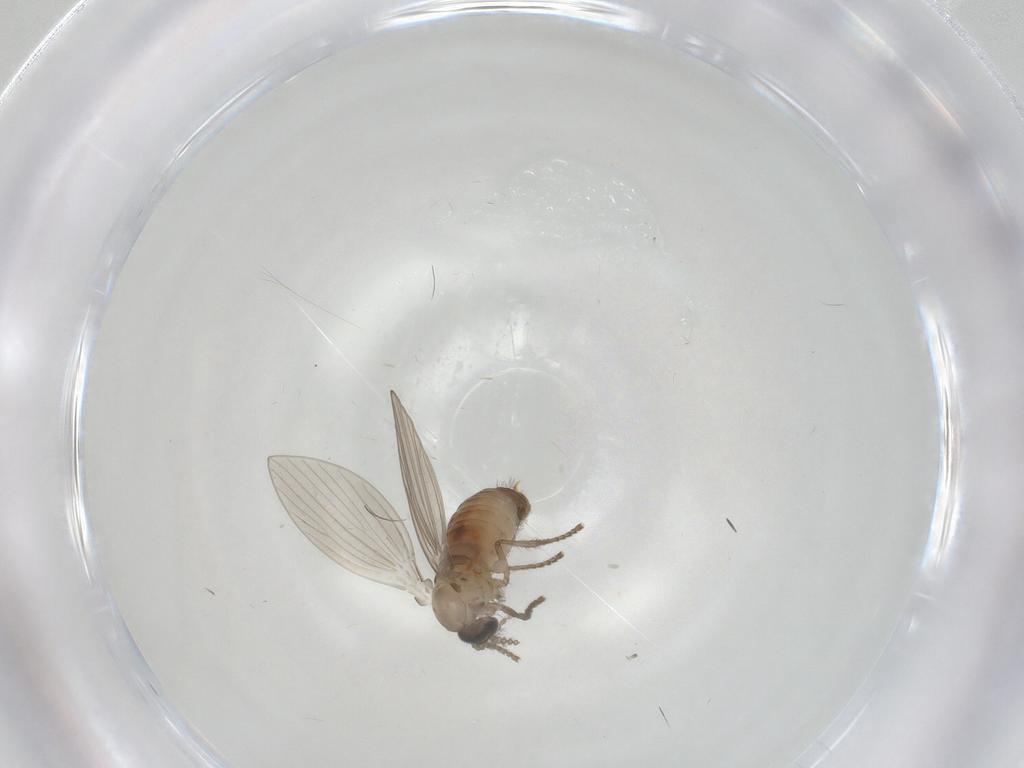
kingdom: Animalia
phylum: Arthropoda
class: Insecta
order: Diptera
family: Psychodidae
